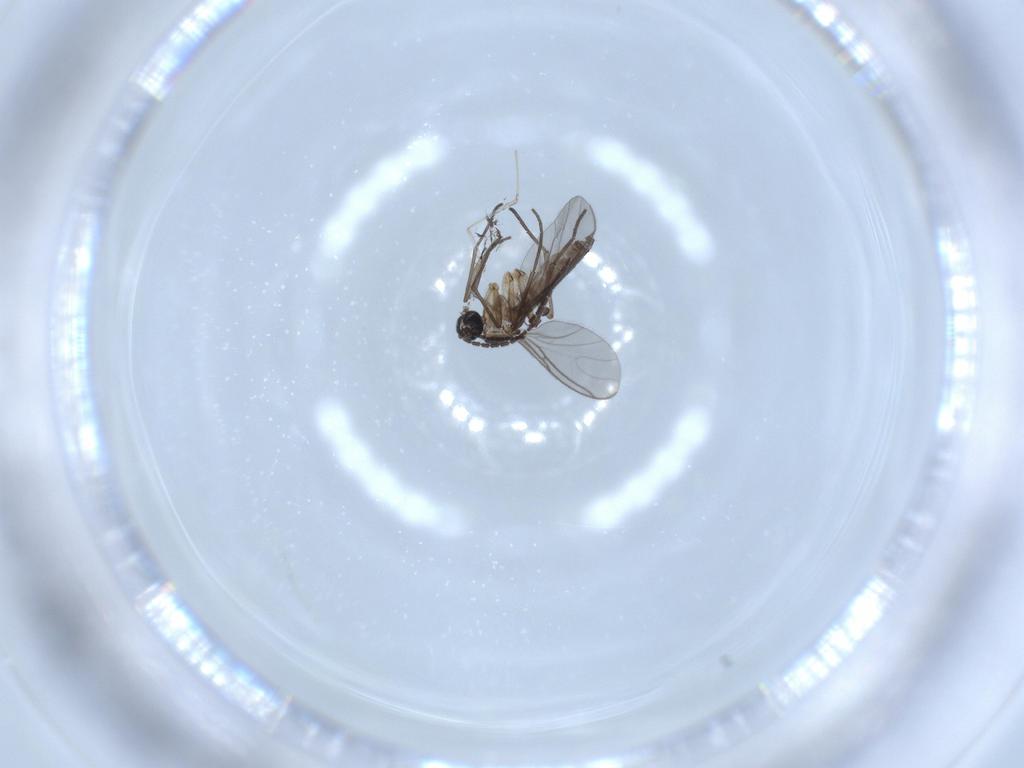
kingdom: Animalia
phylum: Arthropoda
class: Insecta
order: Diptera
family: Sciaridae
